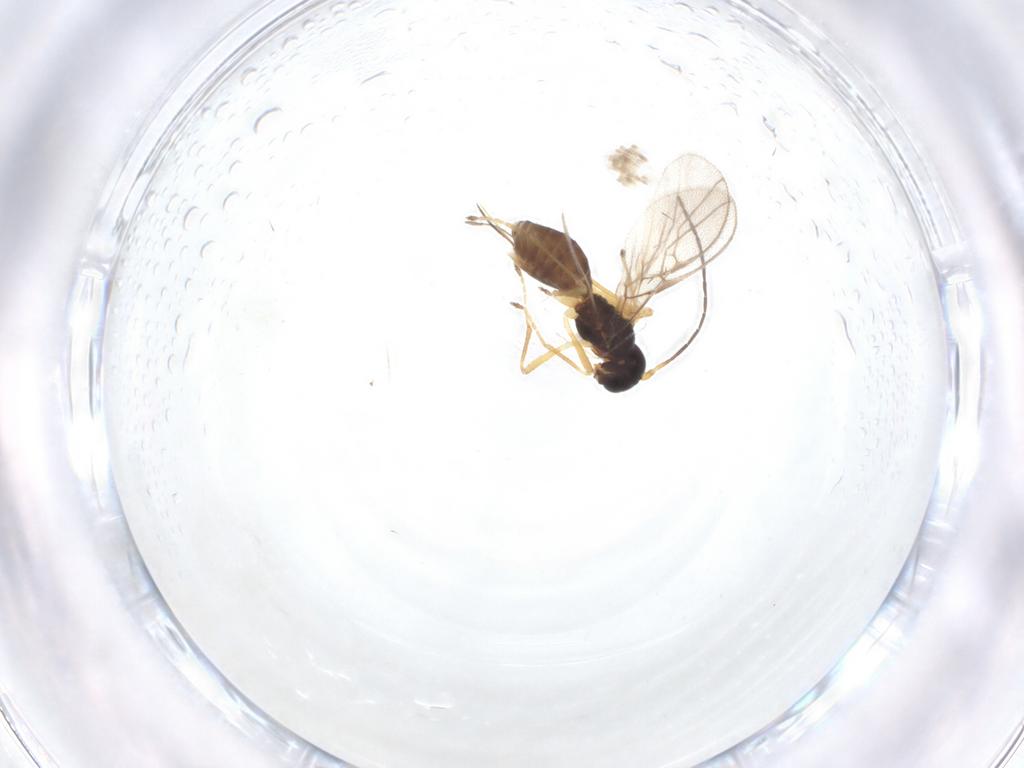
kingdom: Animalia
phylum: Arthropoda
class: Insecta
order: Hymenoptera
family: Braconidae
